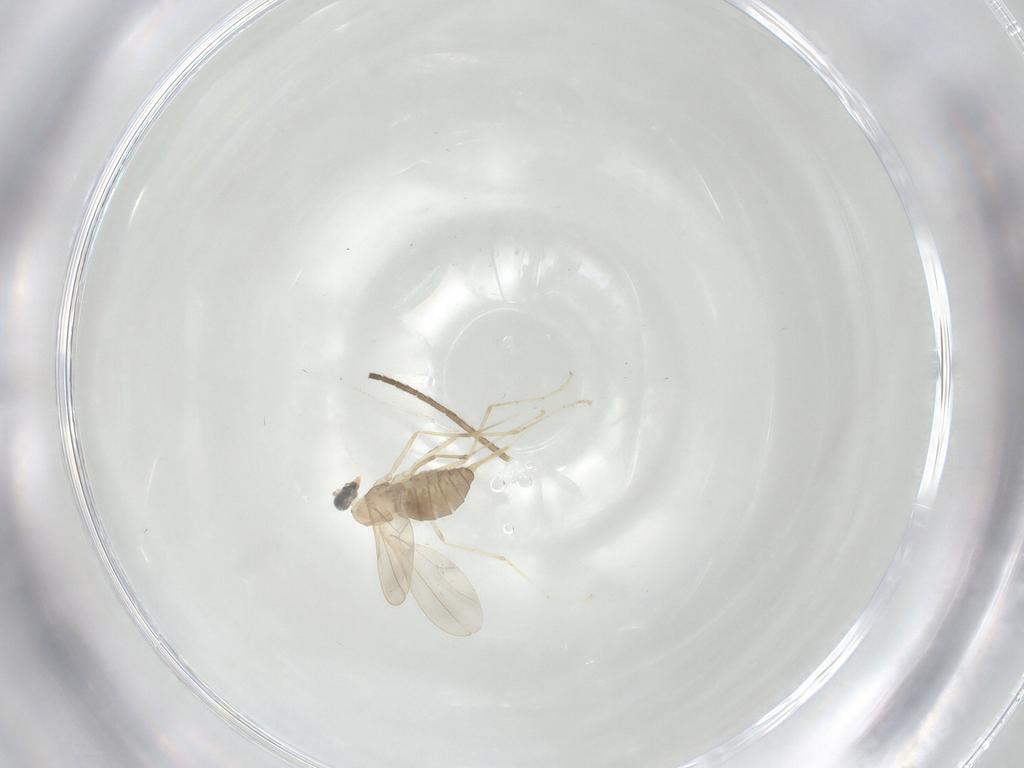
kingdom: Animalia
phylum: Arthropoda
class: Insecta
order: Diptera
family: Cecidomyiidae
